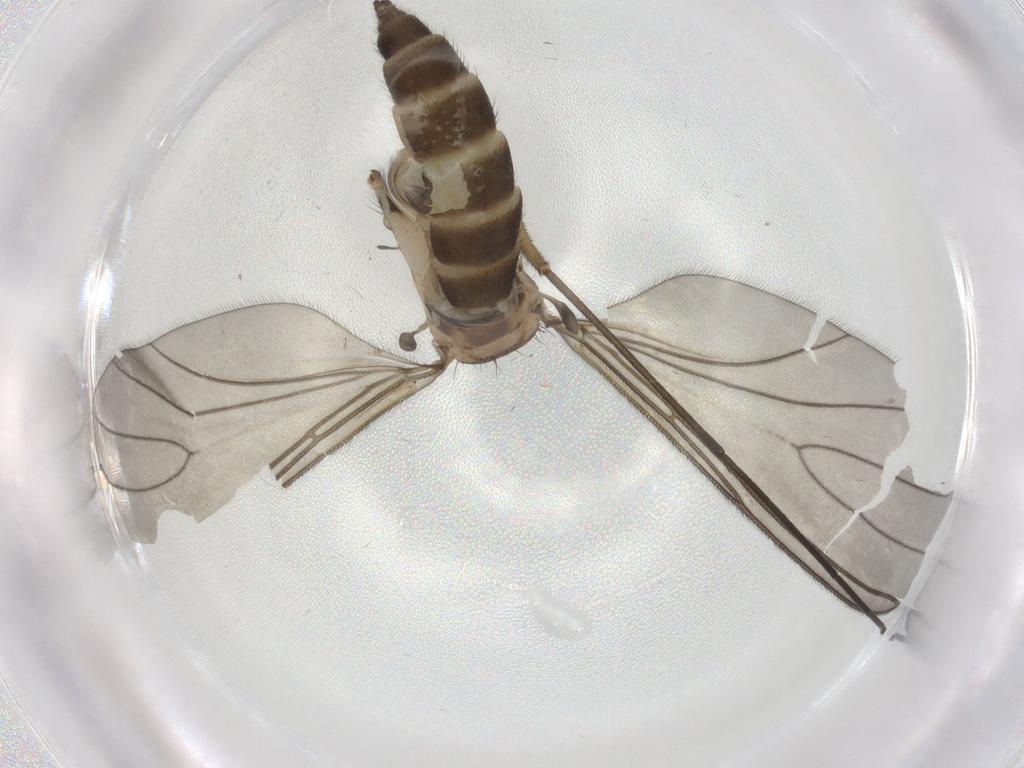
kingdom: Animalia
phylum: Arthropoda
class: Insecta
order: Diptera
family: Sciaridae
